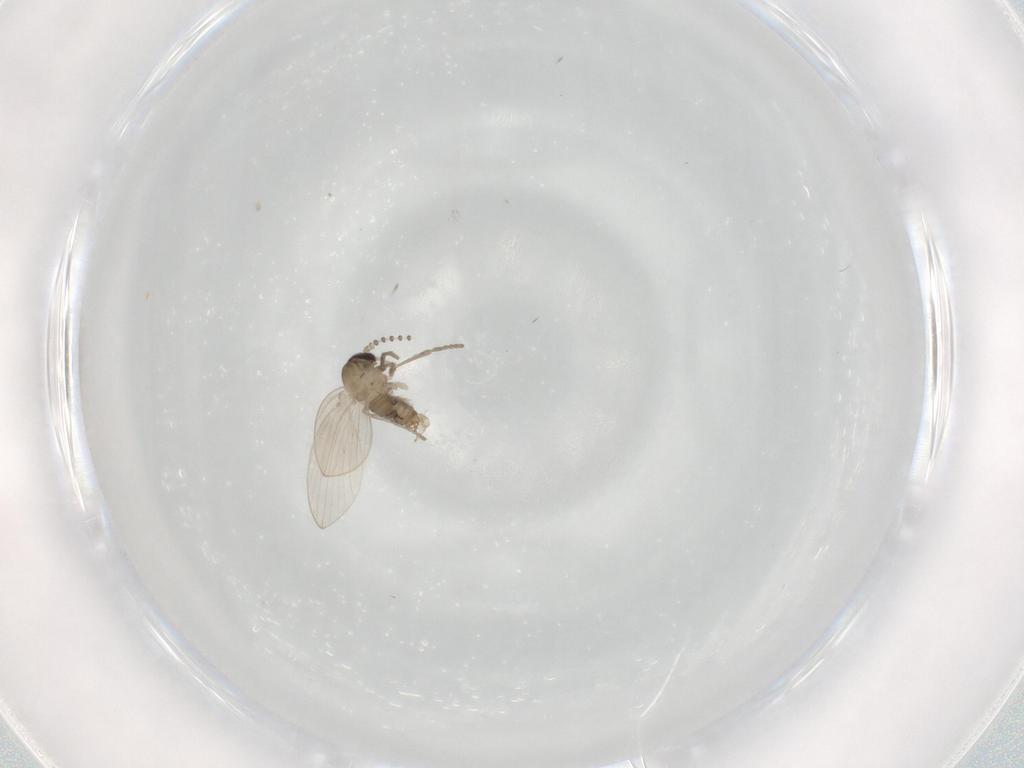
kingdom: Animalia
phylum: Arthropoda
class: Insecta
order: Diptera
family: Psychodidae
